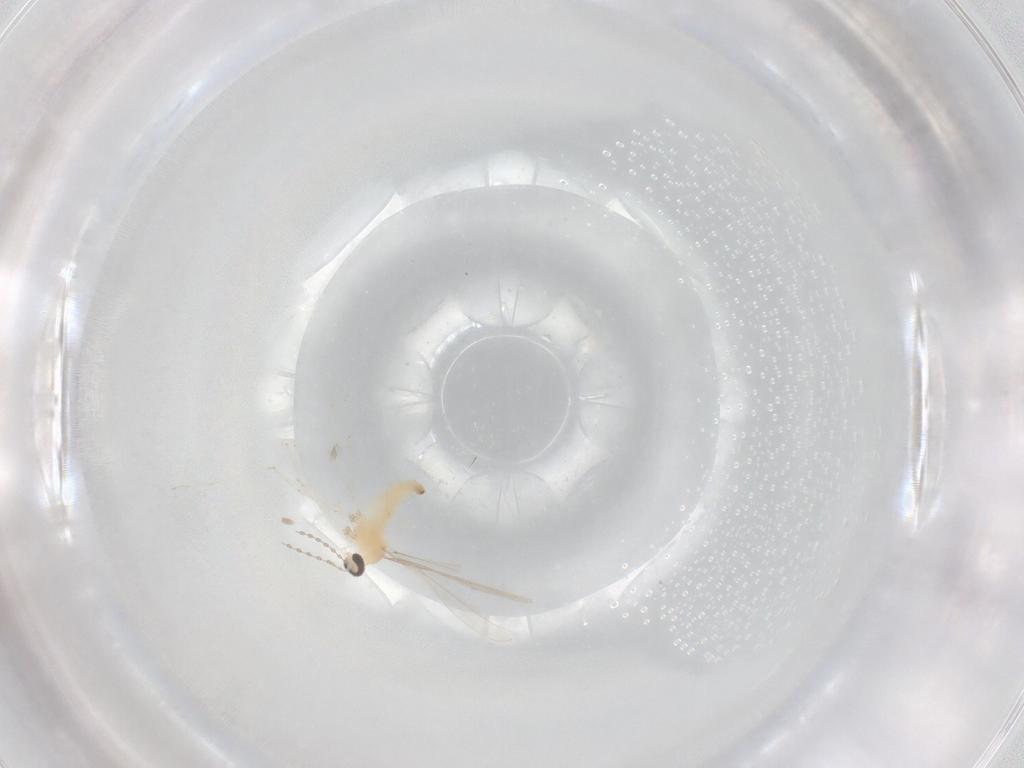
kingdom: Animalia
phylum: Arthropoda
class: Insecta
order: Diptera
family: Cecidomyiidae
